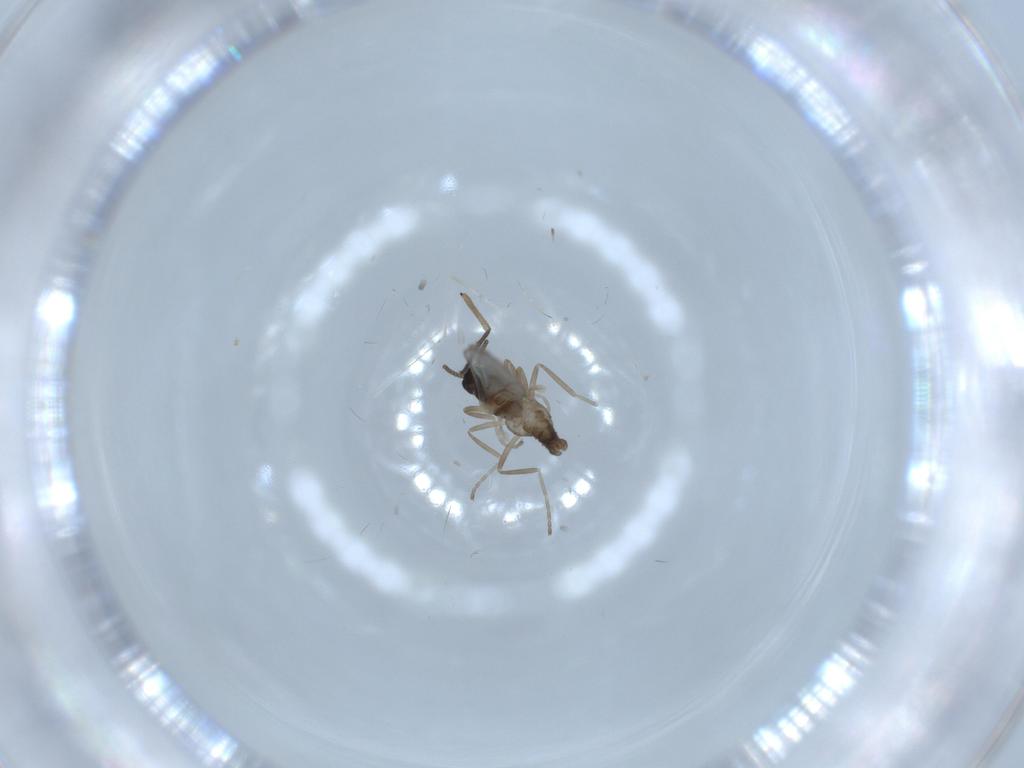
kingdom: Animalia
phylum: Arthropoda
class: Insecta
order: Diptera
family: Cecidomyiidae
